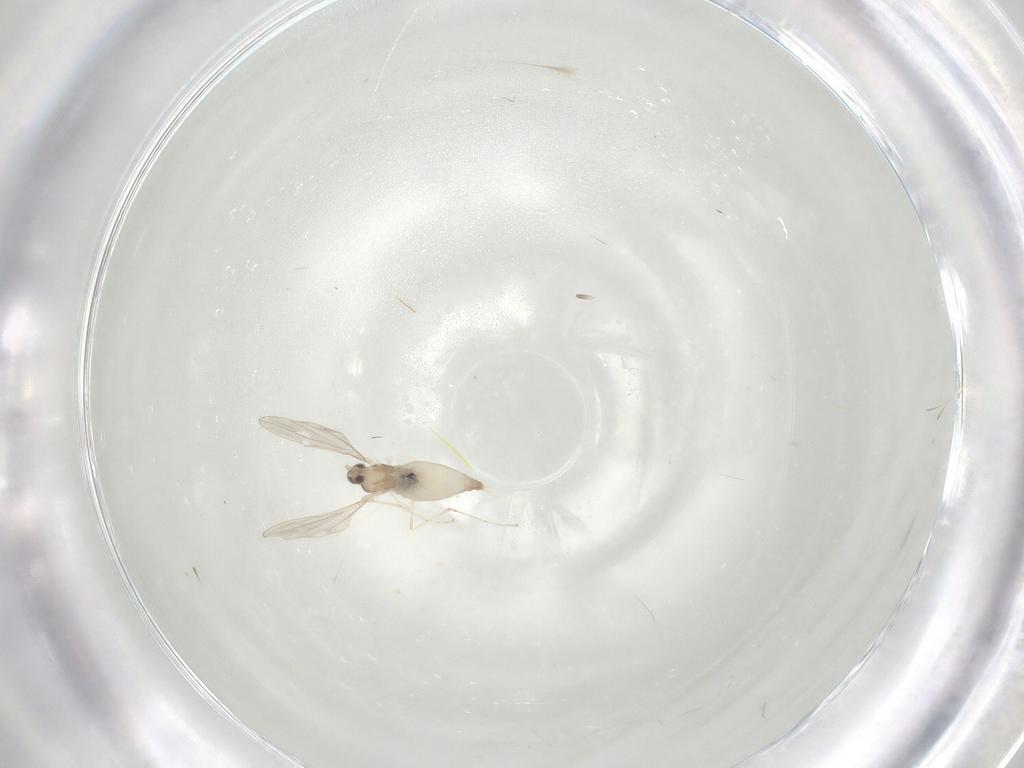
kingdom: Animalia
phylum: Arthropoda
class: Insecta
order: Diptera
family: Cecidomyiidae
